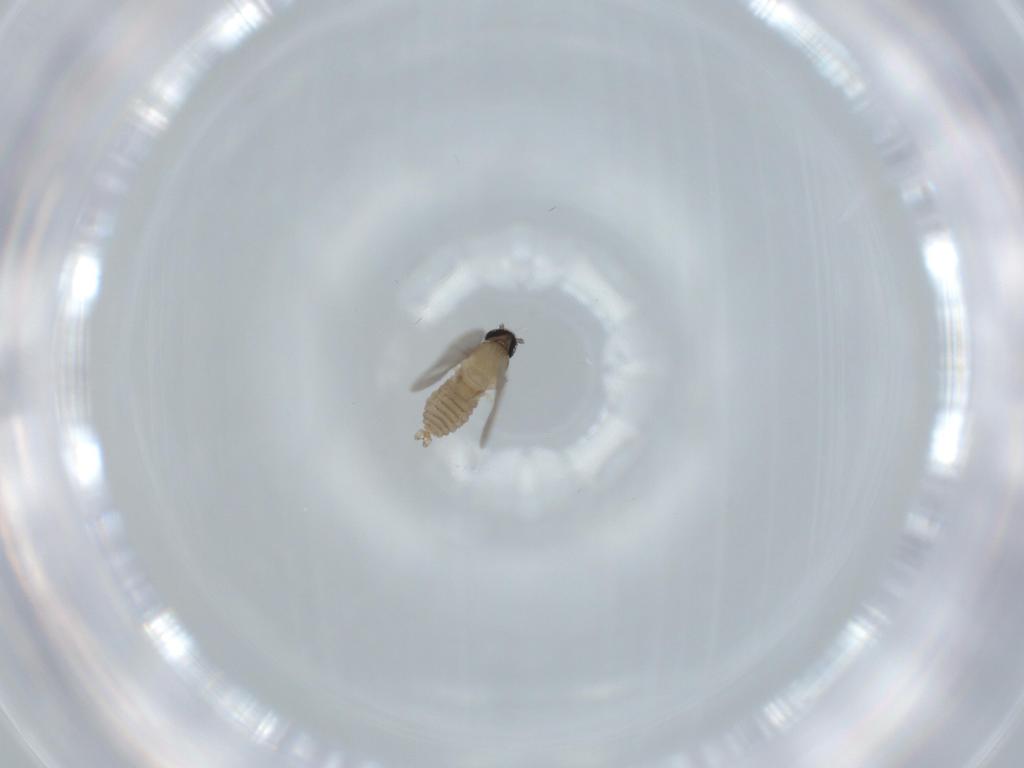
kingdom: Animalia
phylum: Arthropoda
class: Insecta
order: Diptera
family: Cecidomyiidae
